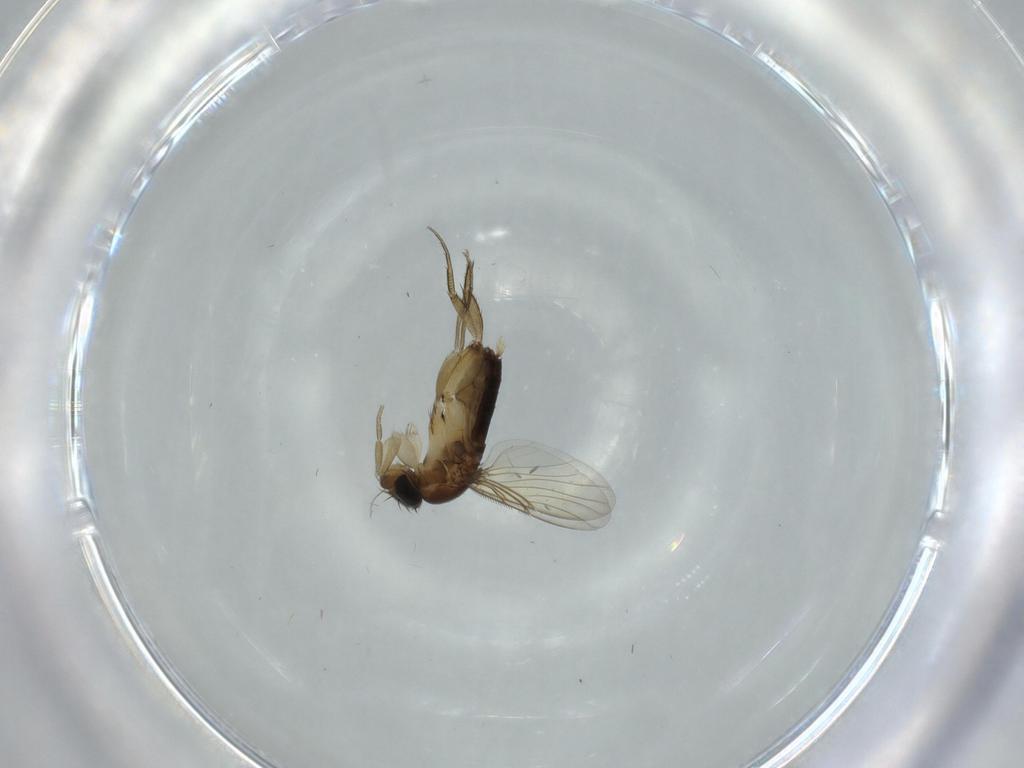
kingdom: Animalia
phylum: Arthropoda
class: Insecta
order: Diptera
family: Phoridae
